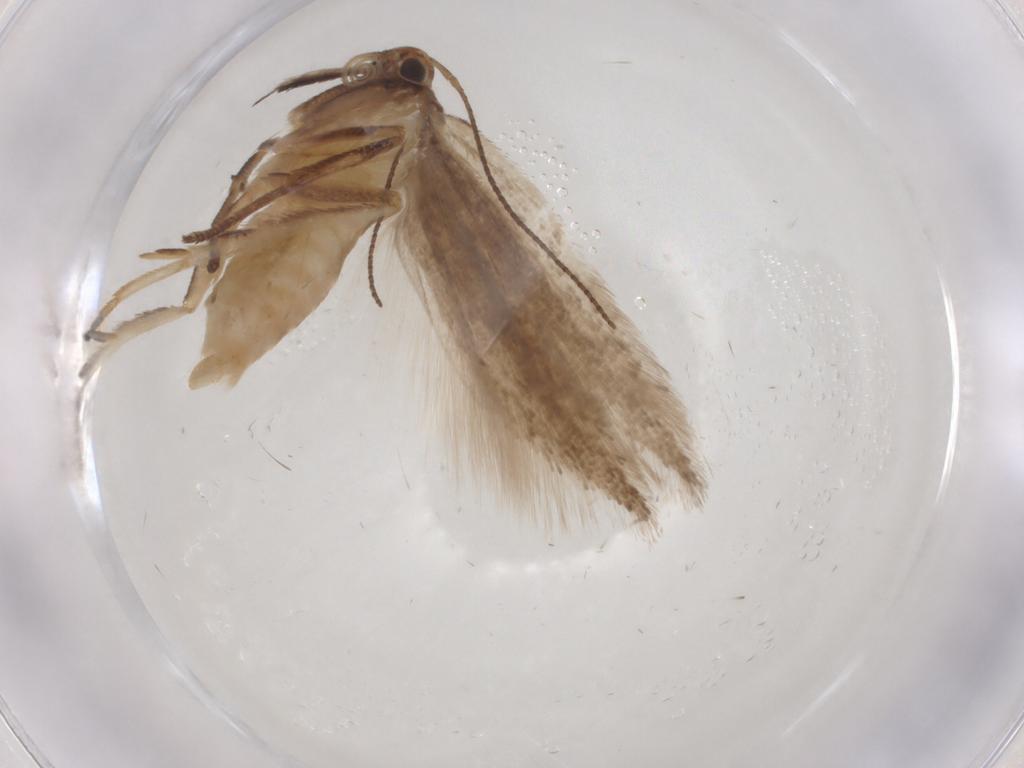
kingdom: Animalia
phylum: Arthropoda
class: Insecta
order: Lepidoptera
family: Gelechiidae
